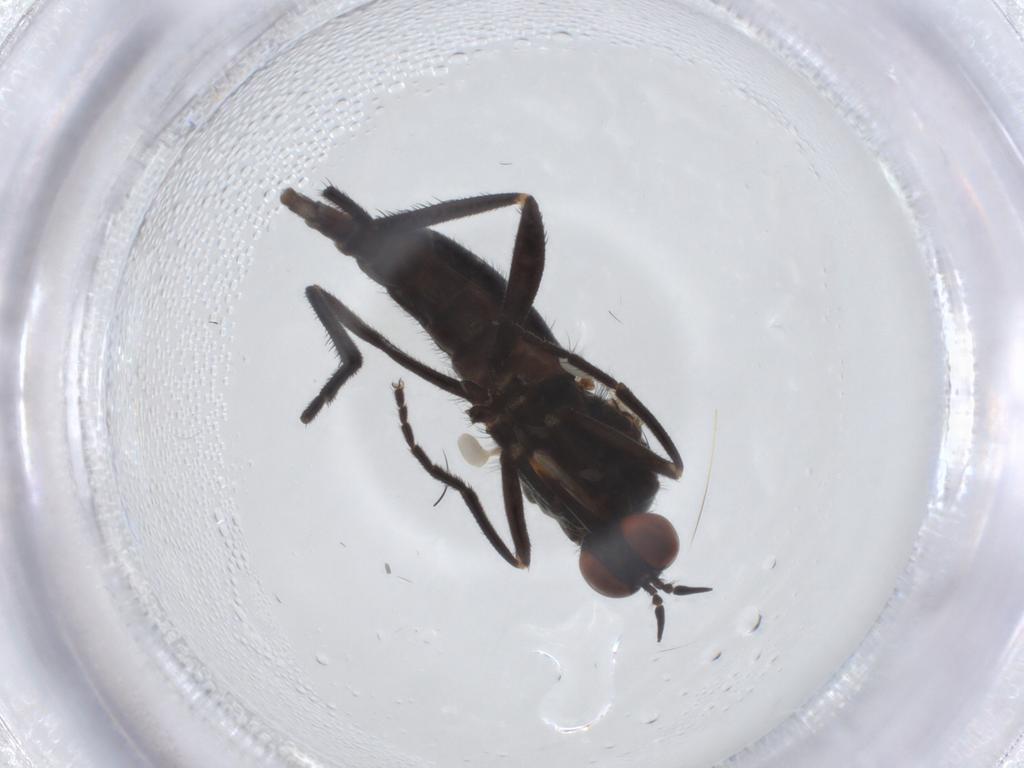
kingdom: Animalia
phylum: Arthropoda
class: Insecta
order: Diptera
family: Empididae
